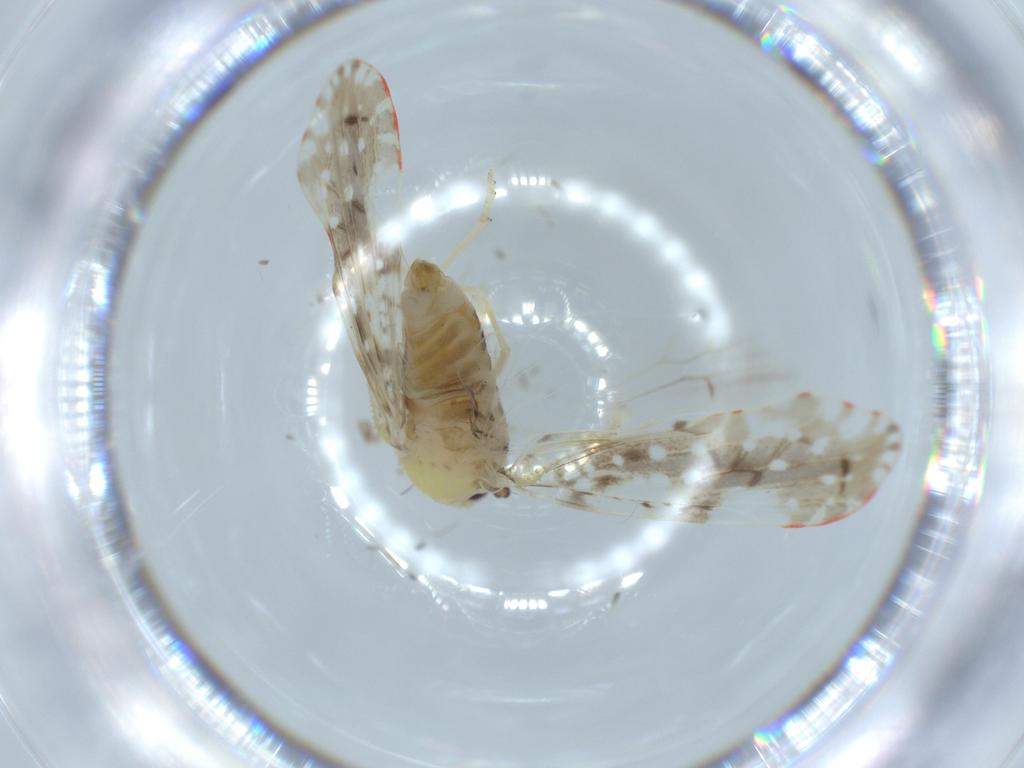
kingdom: Animalia
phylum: Arthropoda
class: Insecta
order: Hemiptera
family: Derbidae
